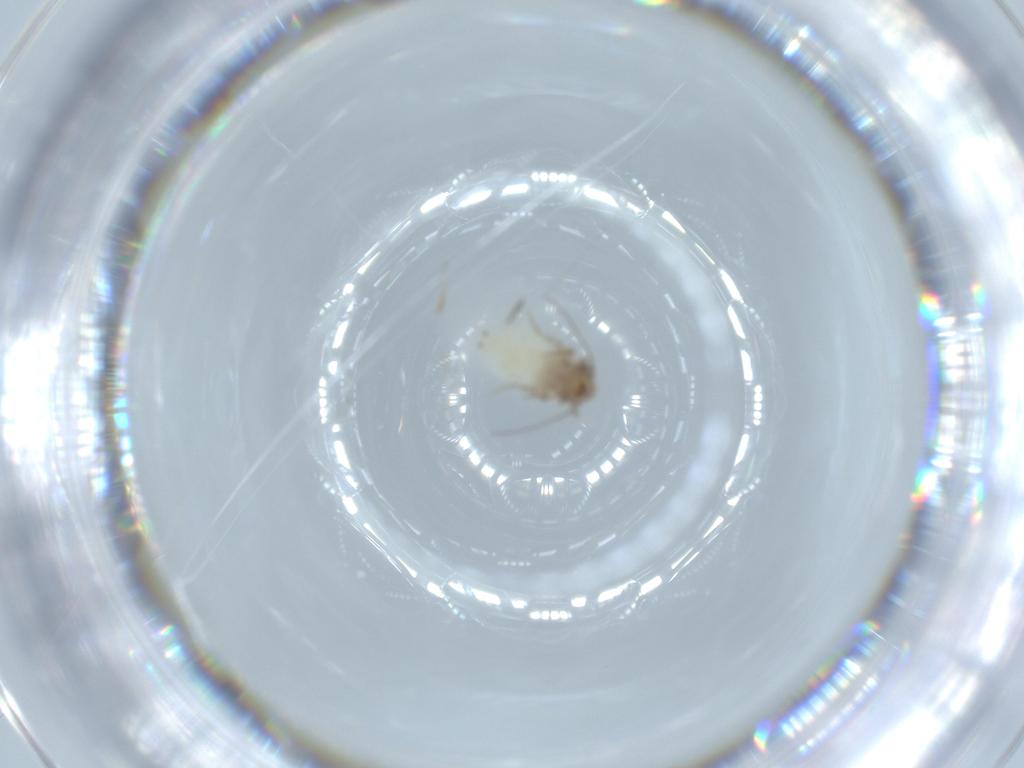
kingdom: Animalia
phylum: Arthropoda
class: Insecta
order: Psocodea
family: Lepidopsocidae
